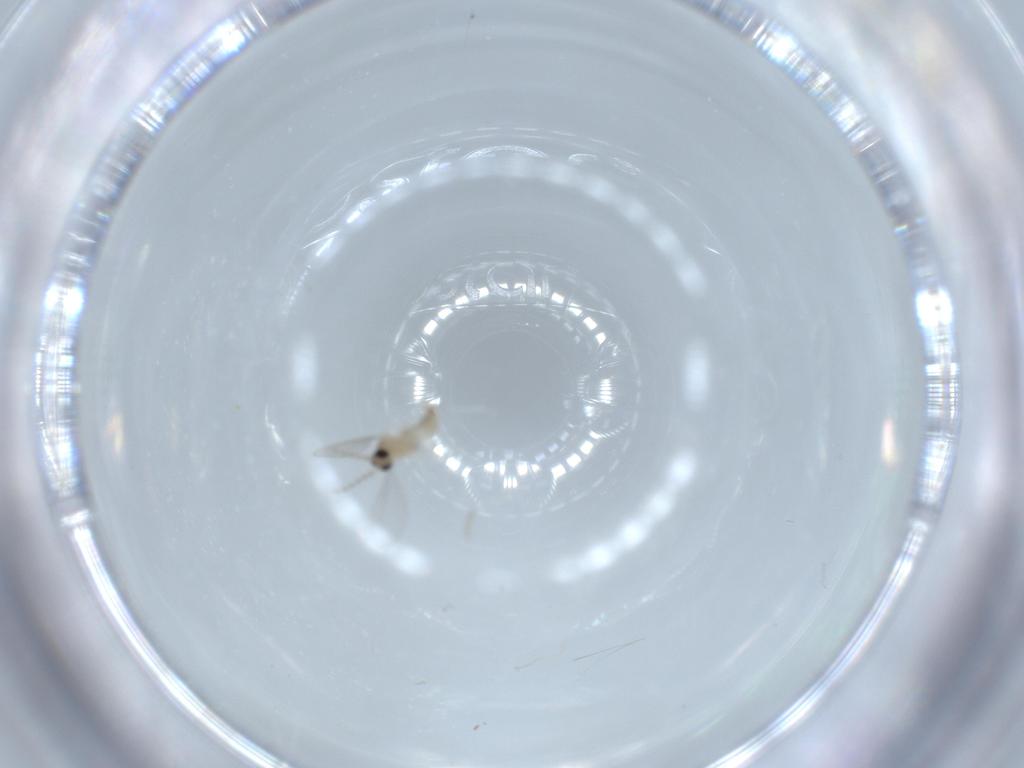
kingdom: Animalia
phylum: Arthropoda
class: Insecta
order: Diptera
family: Cecidomyiidae
